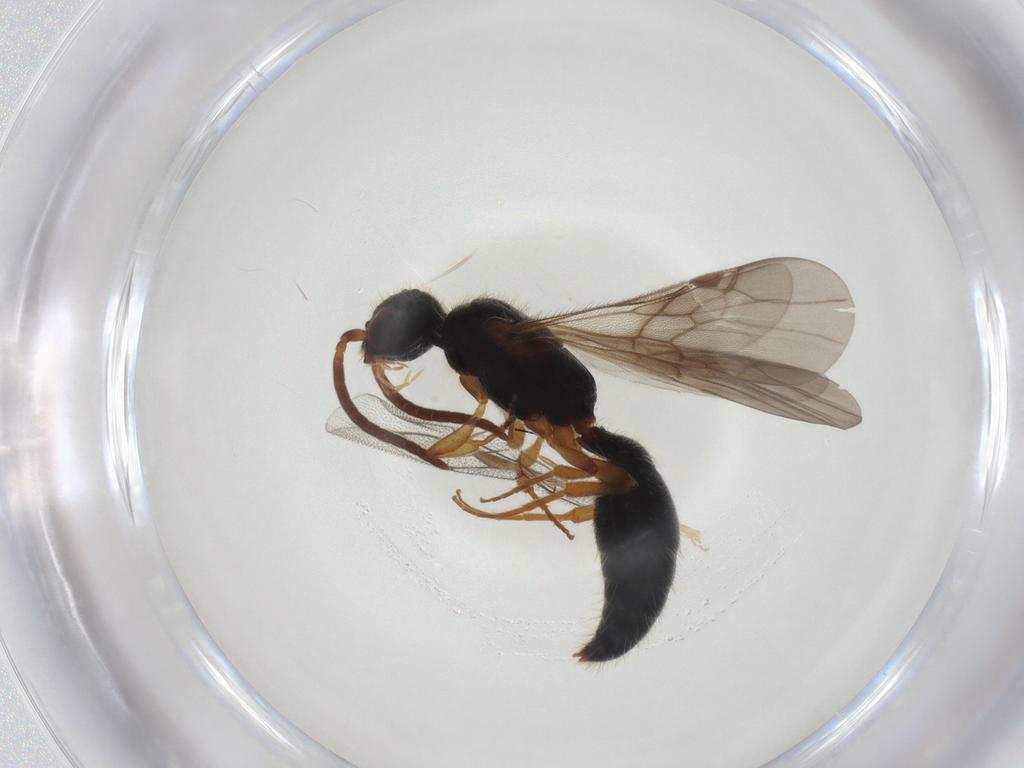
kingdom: Animalia
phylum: Arthropoda
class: Insecta
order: Hymenoptera
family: Mutillidae
